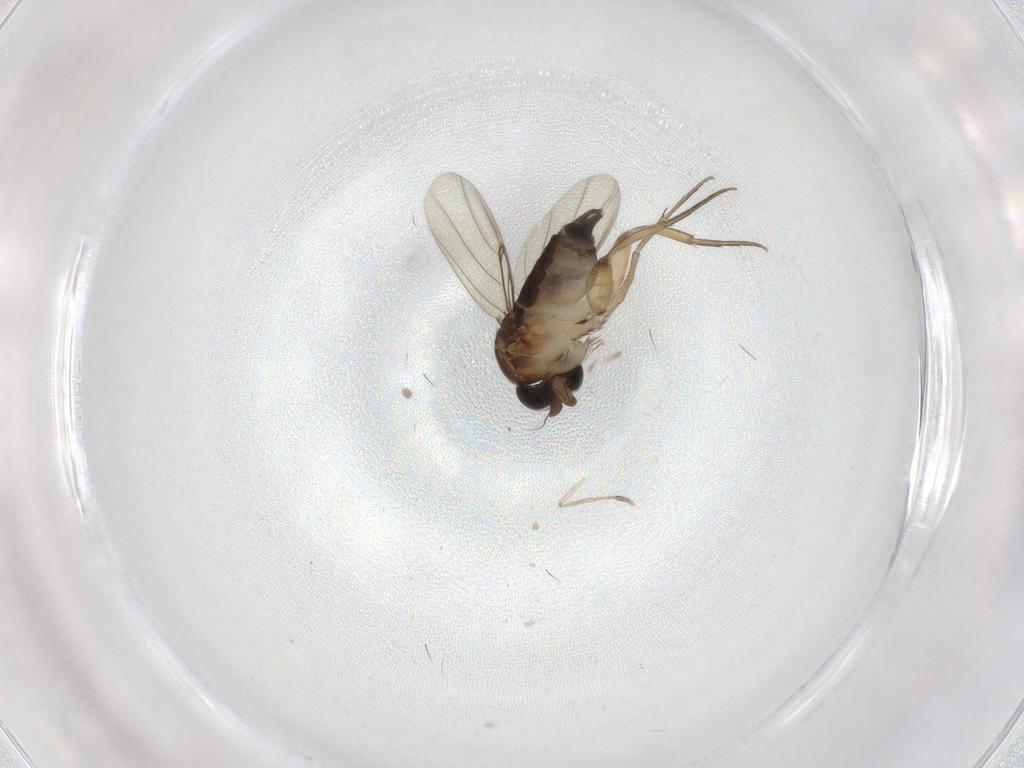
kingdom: Animalia
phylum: Arthropoda
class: Insecta
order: Diptera
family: Phoridae
